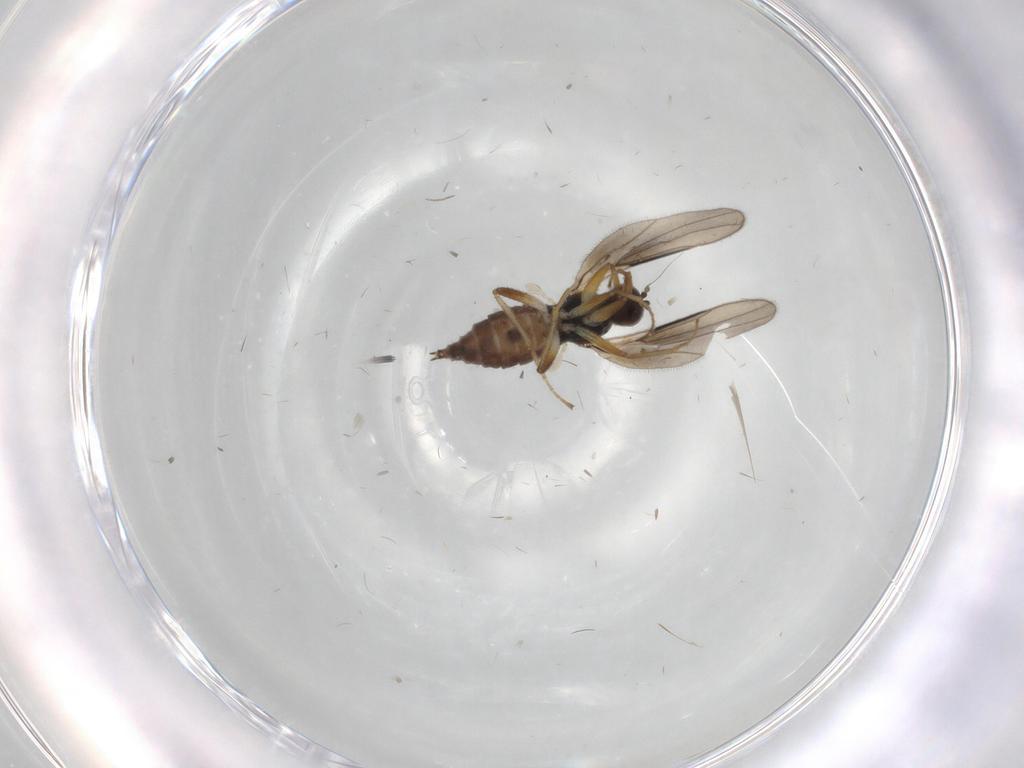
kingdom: Animalia
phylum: Arthropoda
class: Insecta
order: Diptera
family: Hybotidae
